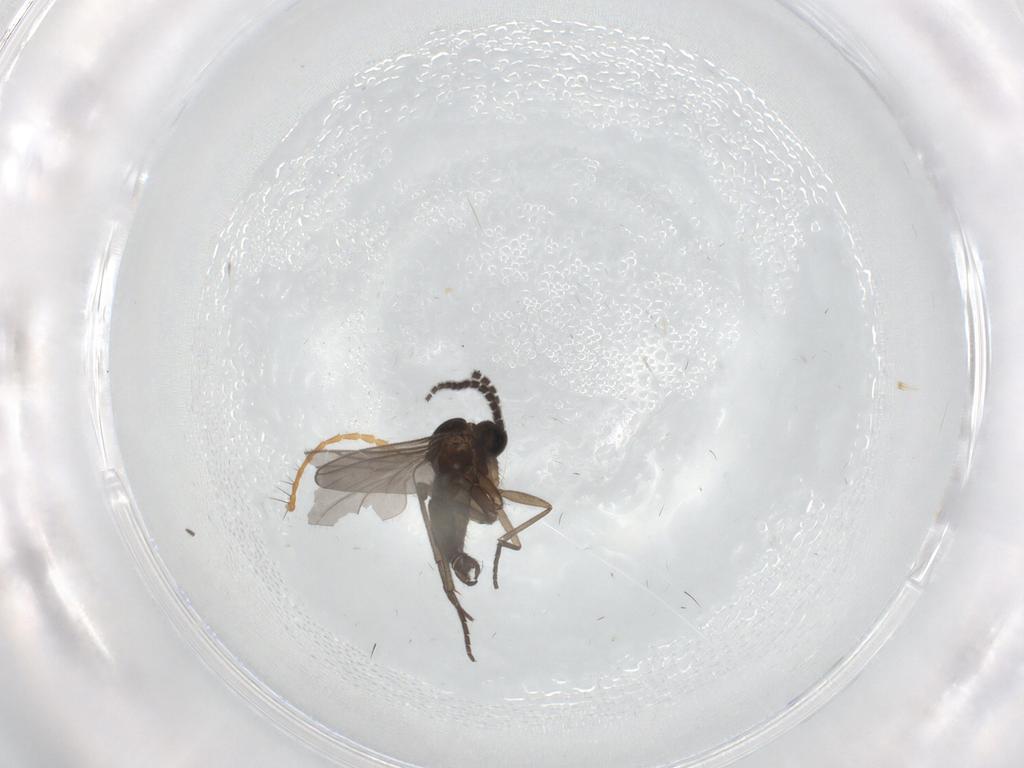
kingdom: Animalia
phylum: Arthropoda
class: Insecta
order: Diptera
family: Sciaridae
